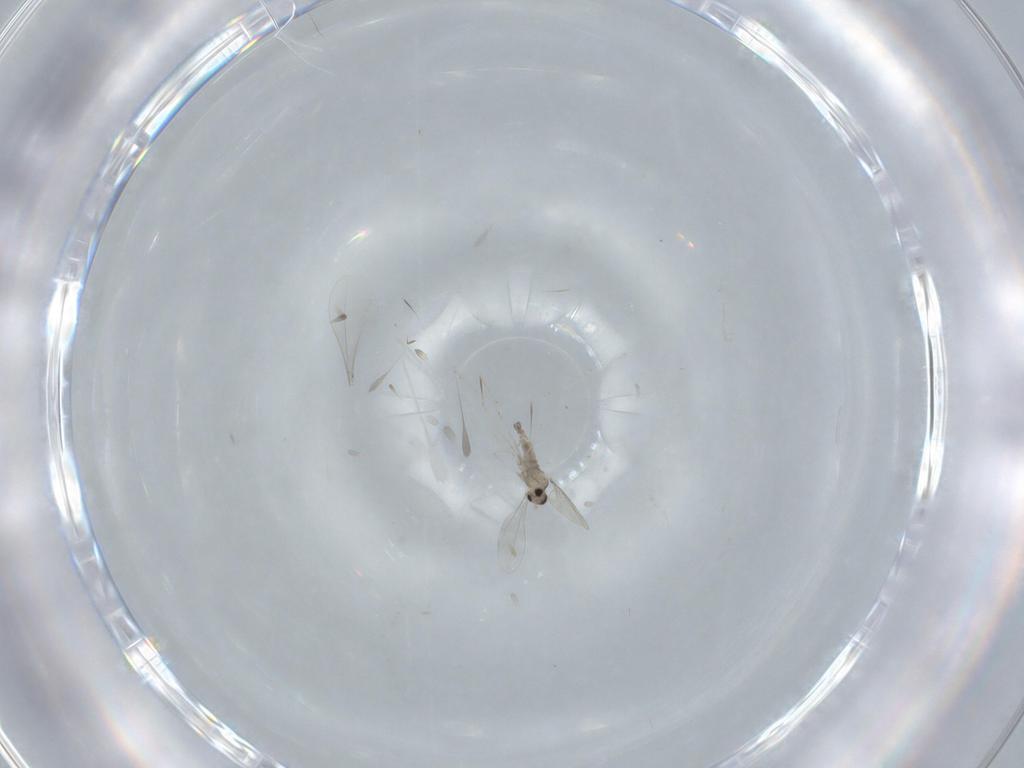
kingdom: Animalia
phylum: Arthropoda
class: Insecta
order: Diptera
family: Cecidomyiidae
